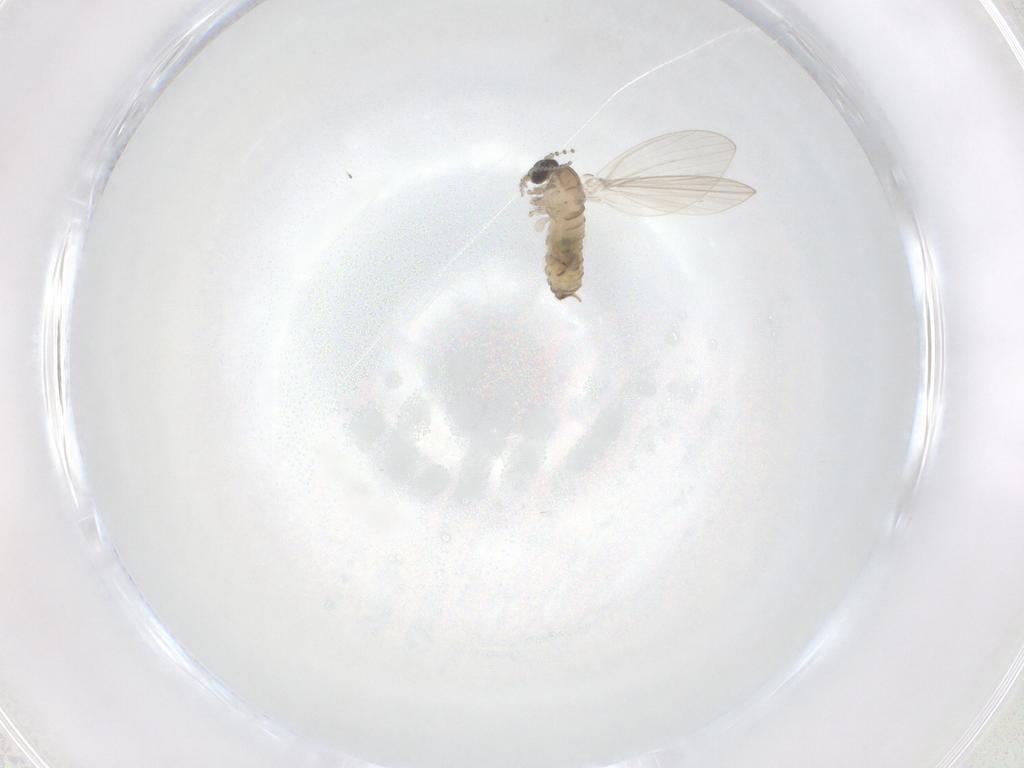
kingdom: Animalia
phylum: Arthropoda
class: Insecta
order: Diptera
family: Psychodidae
